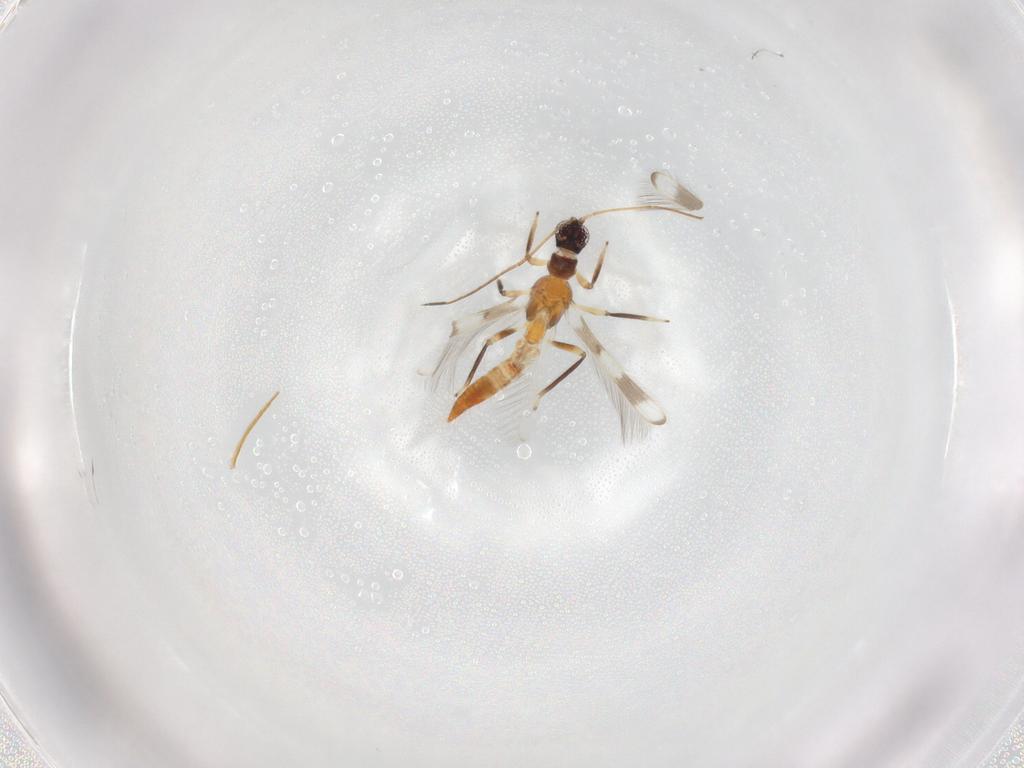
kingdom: Animalia
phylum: Arthropoda
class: Insecta
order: Thysanoptera
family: Aeolothripidae
